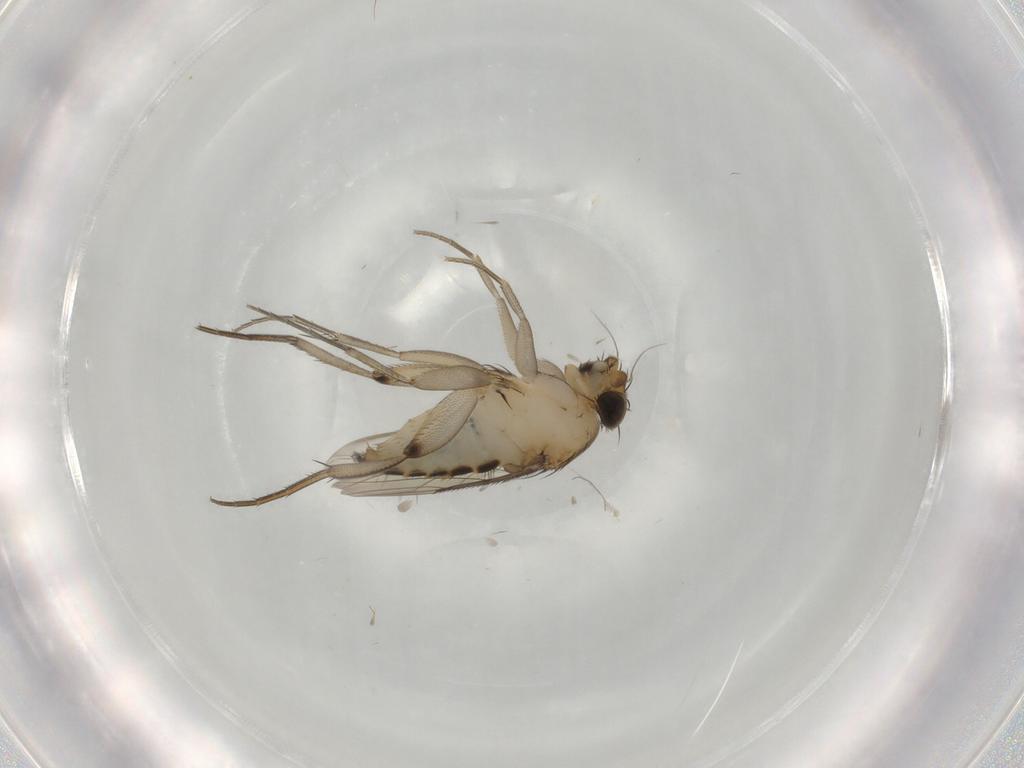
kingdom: Animalia
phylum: Arthropoda
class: Insecta
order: Diptera
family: Phoridae
